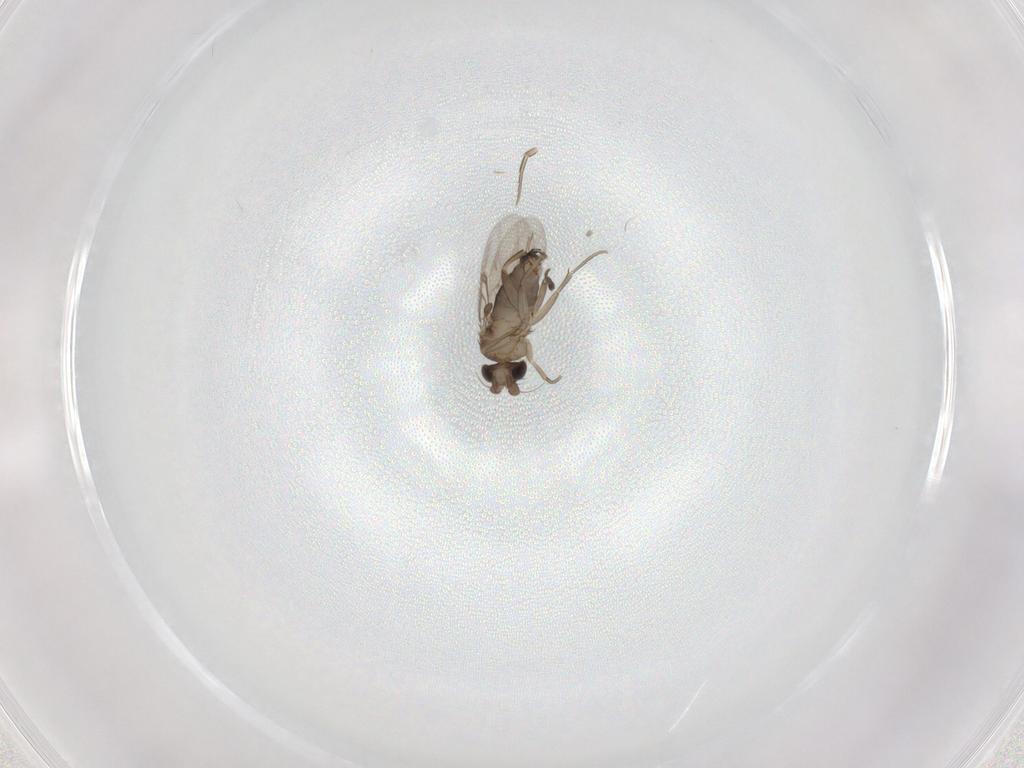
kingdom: Animalia
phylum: Arthropoda
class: Insecta
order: Diptera
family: Phoridae
